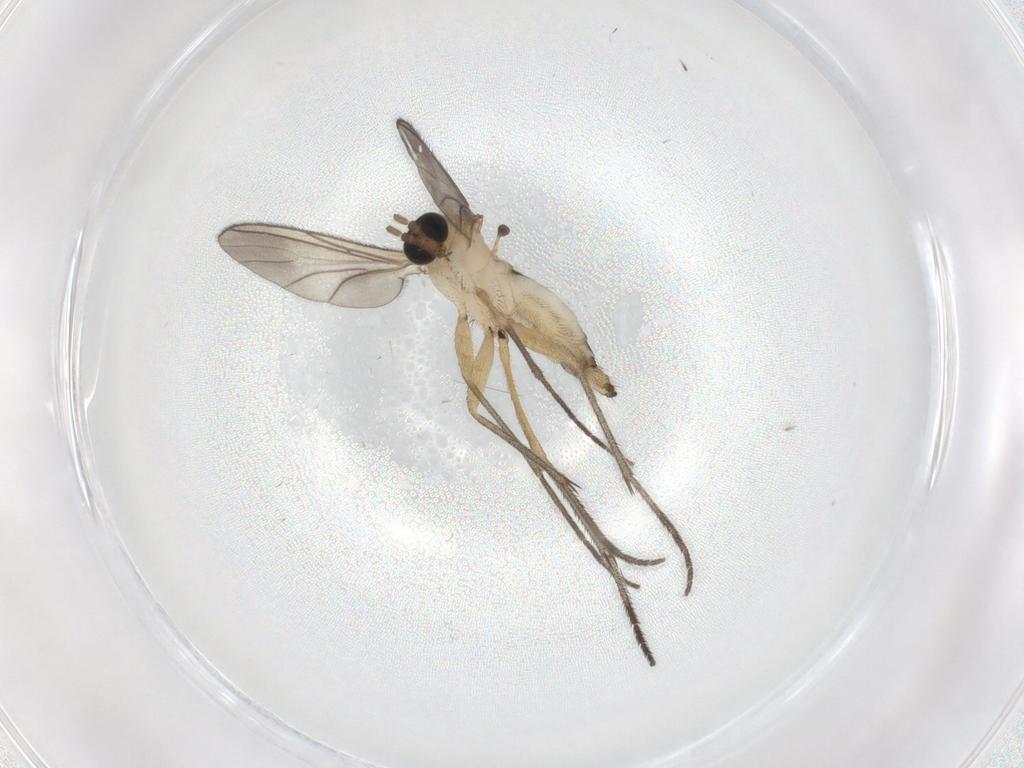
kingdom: Animalia
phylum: Arthropoda
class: Insecta
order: Diptera
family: Sciaridae
